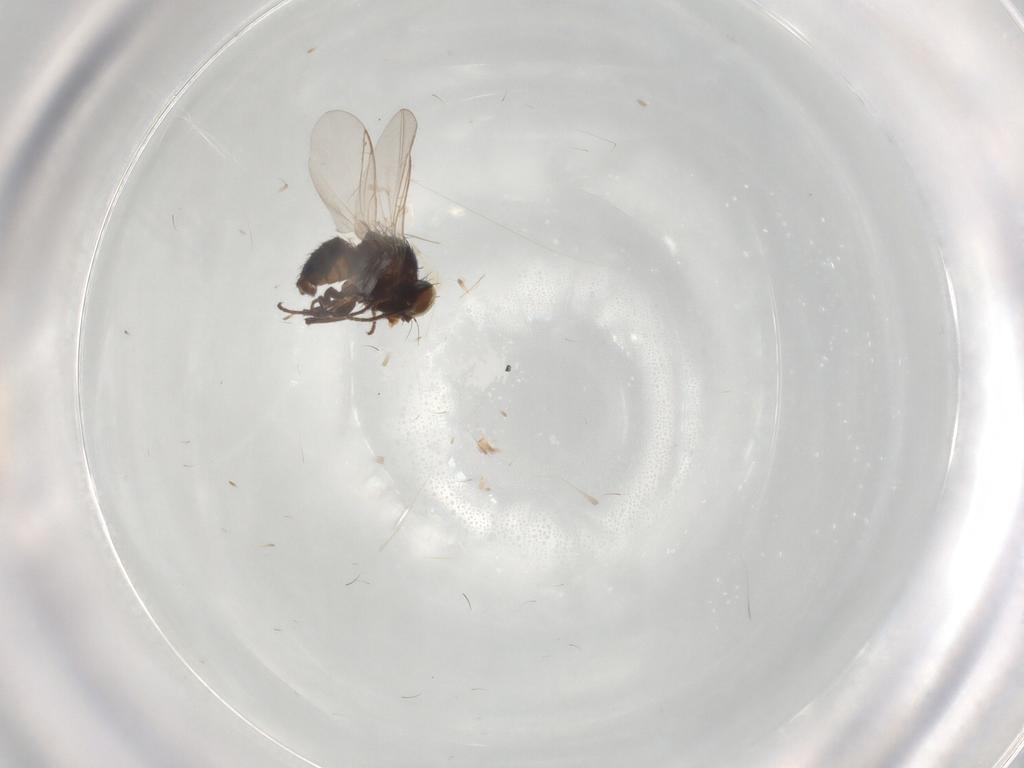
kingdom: Animalia
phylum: Arthropoda
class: Insecta
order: Diptera
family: Agromyzidae
